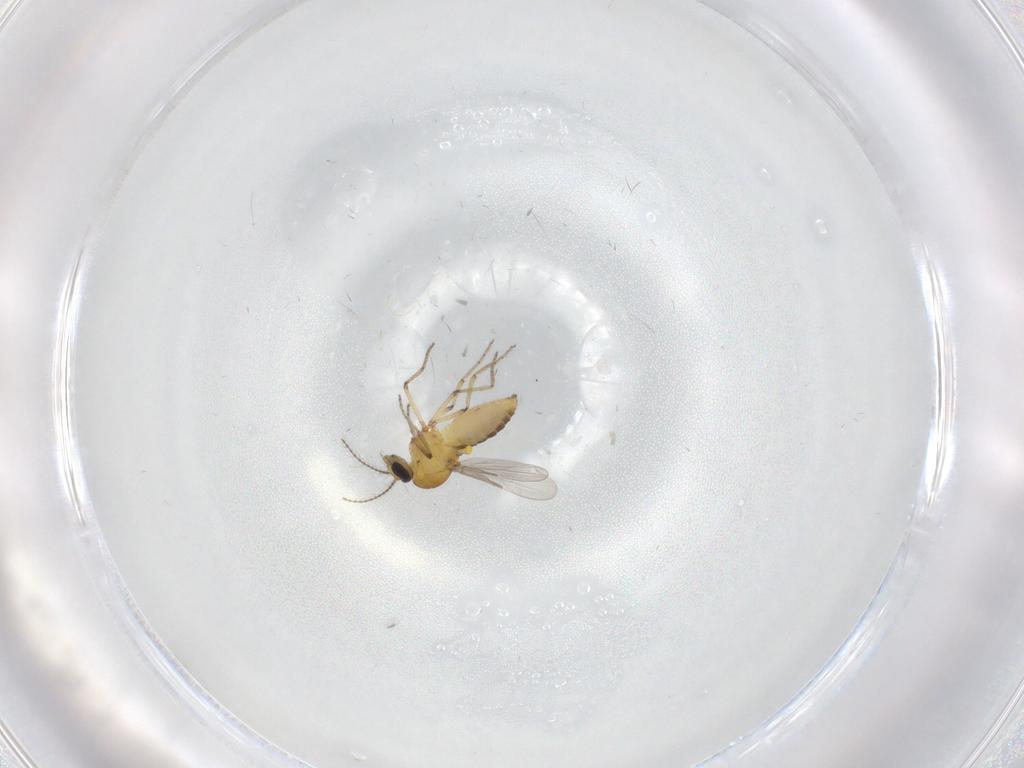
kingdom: Animalia
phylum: Arthropoda
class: Insecta
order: Diptera
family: Ceratopogonidae
